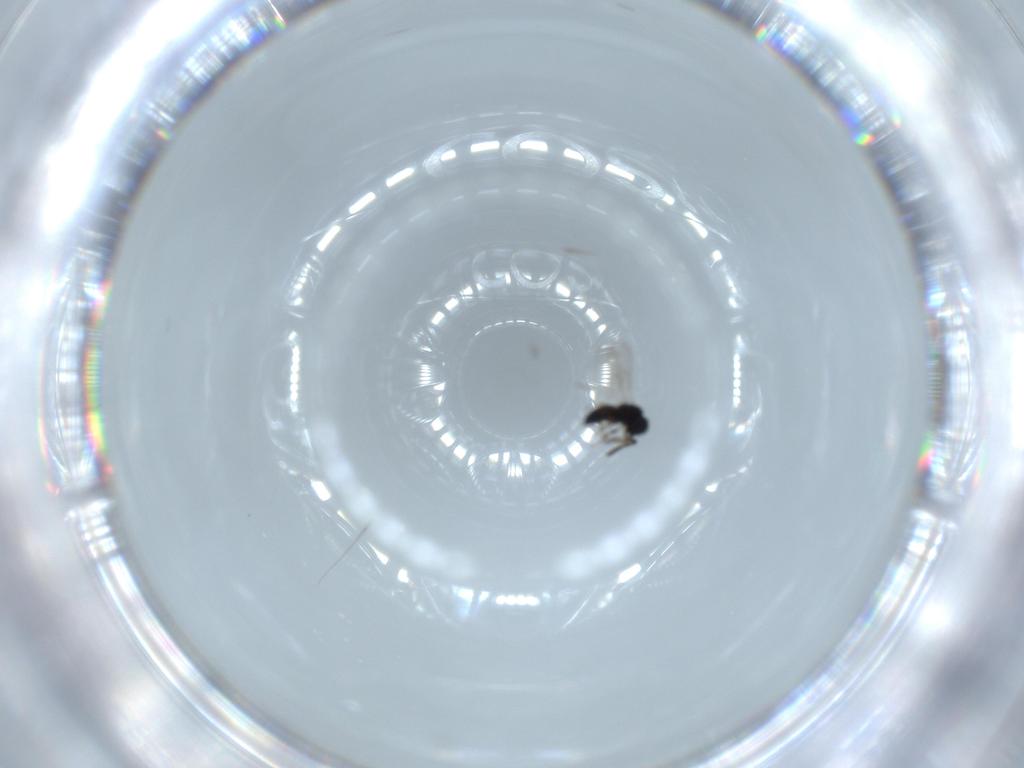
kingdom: Animalia
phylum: Arthropoda
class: Insecta
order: Hymenoptera
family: Scelionidae
